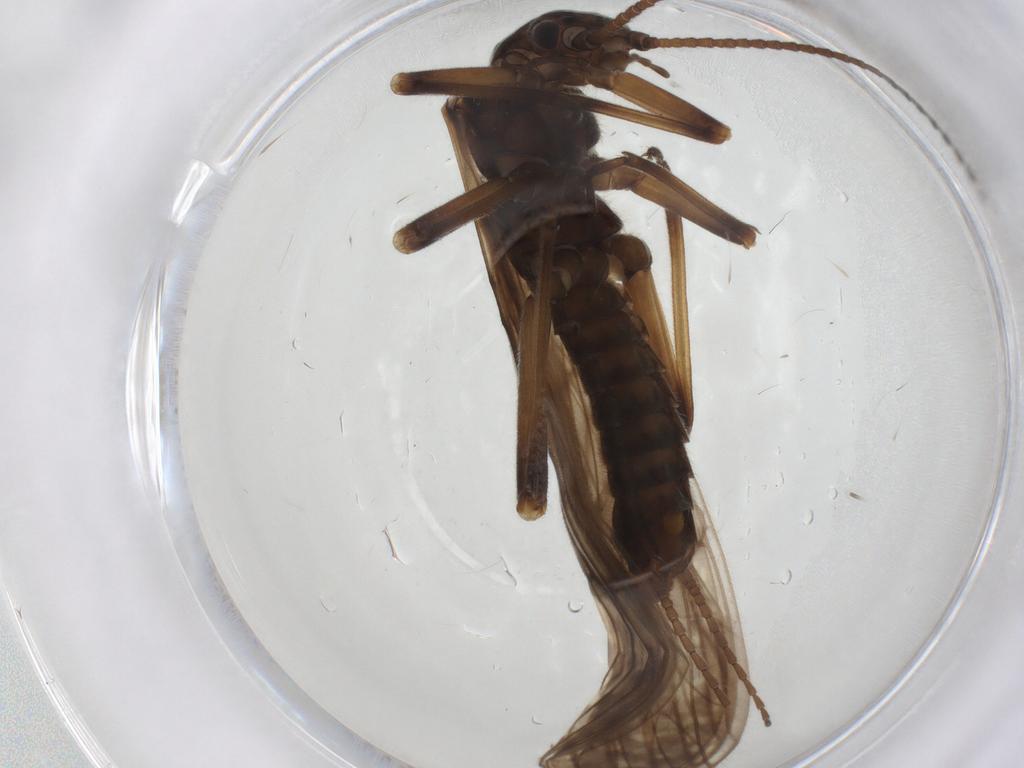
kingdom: Animalia
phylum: Arthropoda
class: Insecta
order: Plecoptera
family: Capniidae
